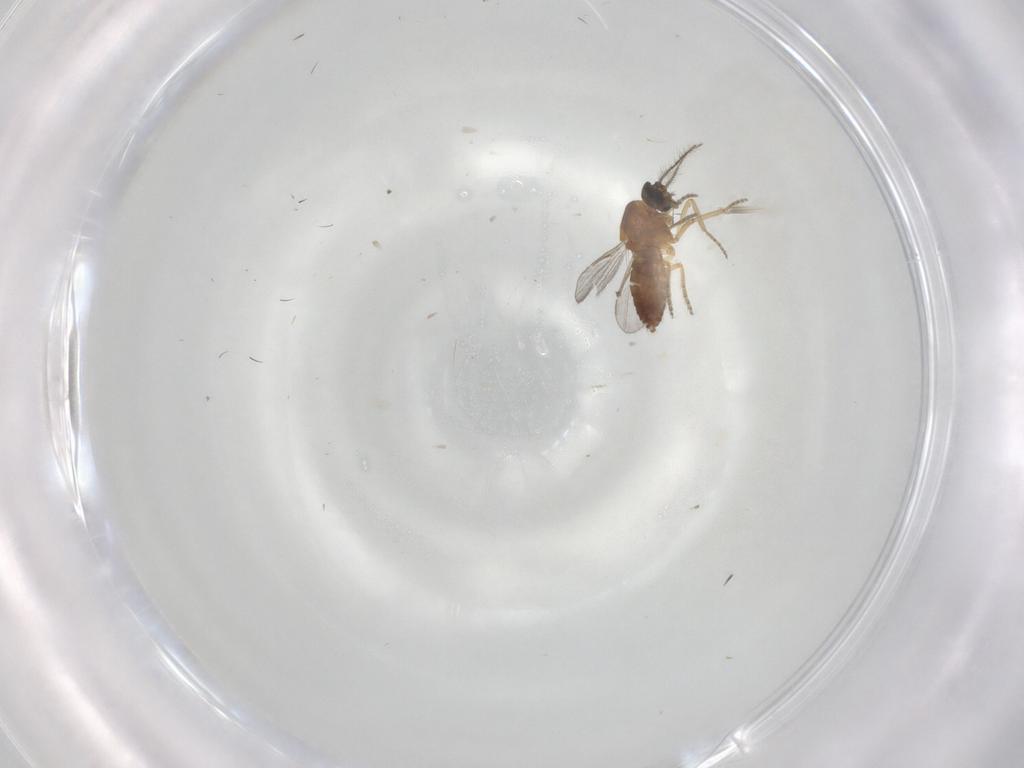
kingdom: Animalia
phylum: Arthropoda
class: Insecta
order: Diptera
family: Ceratopogonidae
